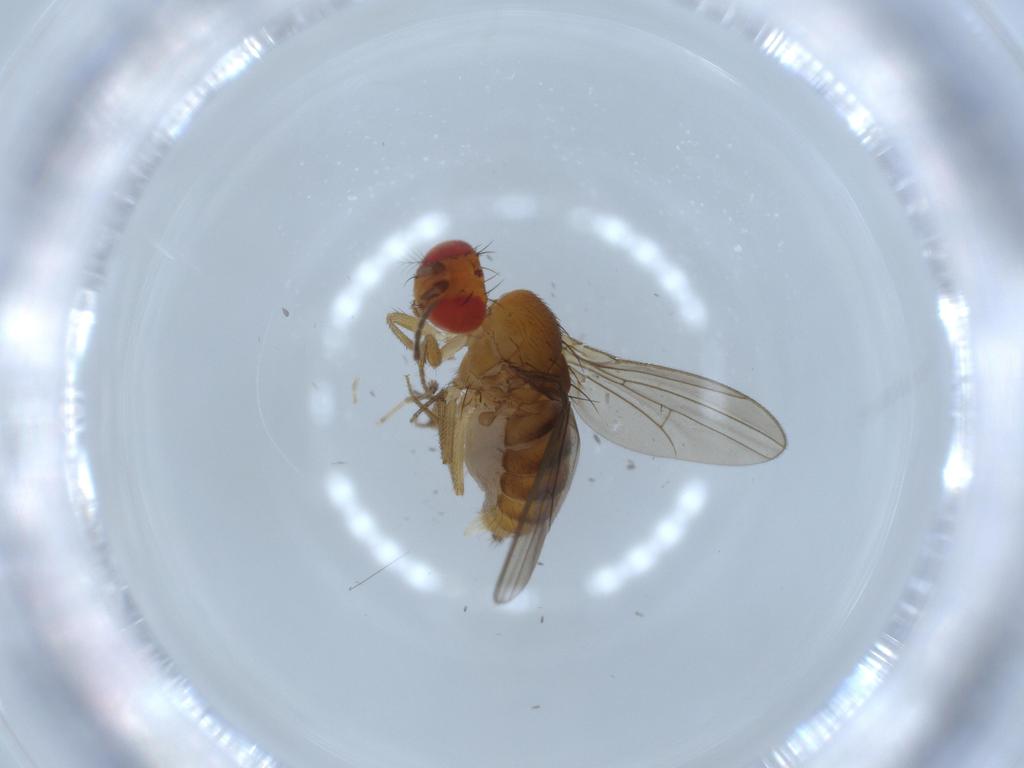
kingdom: Animalia
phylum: Arthropoda
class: Insecta
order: Diptera
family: Drosophilidae
